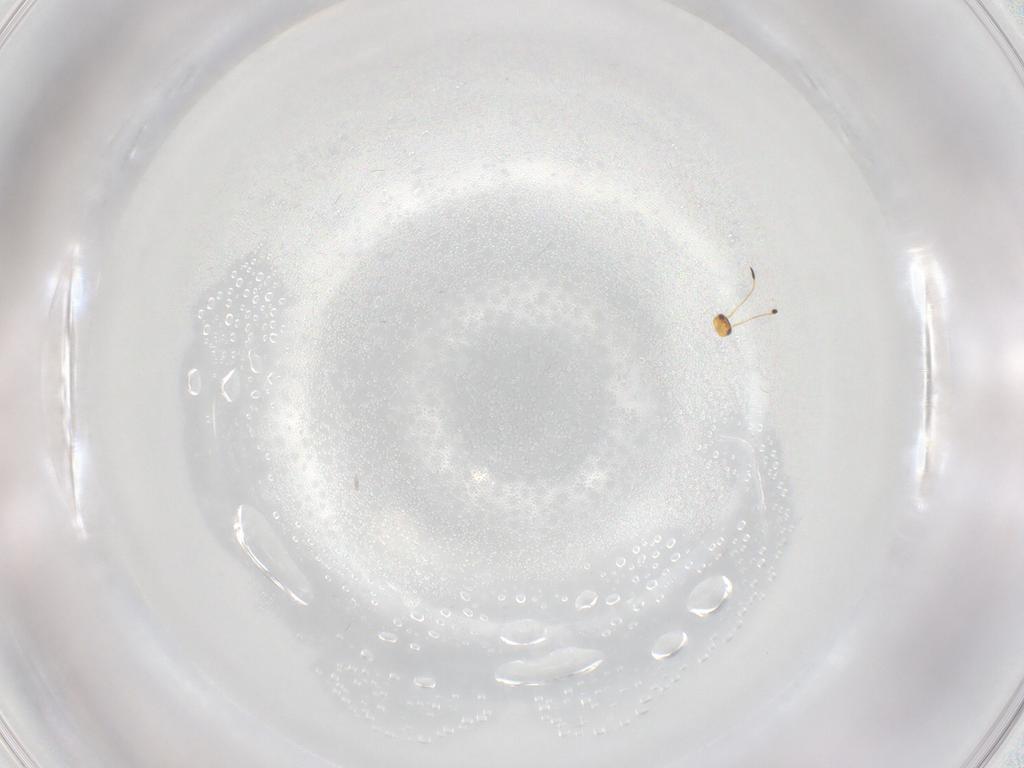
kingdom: Animalia
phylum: Arthropoda
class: Insecta
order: Hymenoptera
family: Mymaridae
